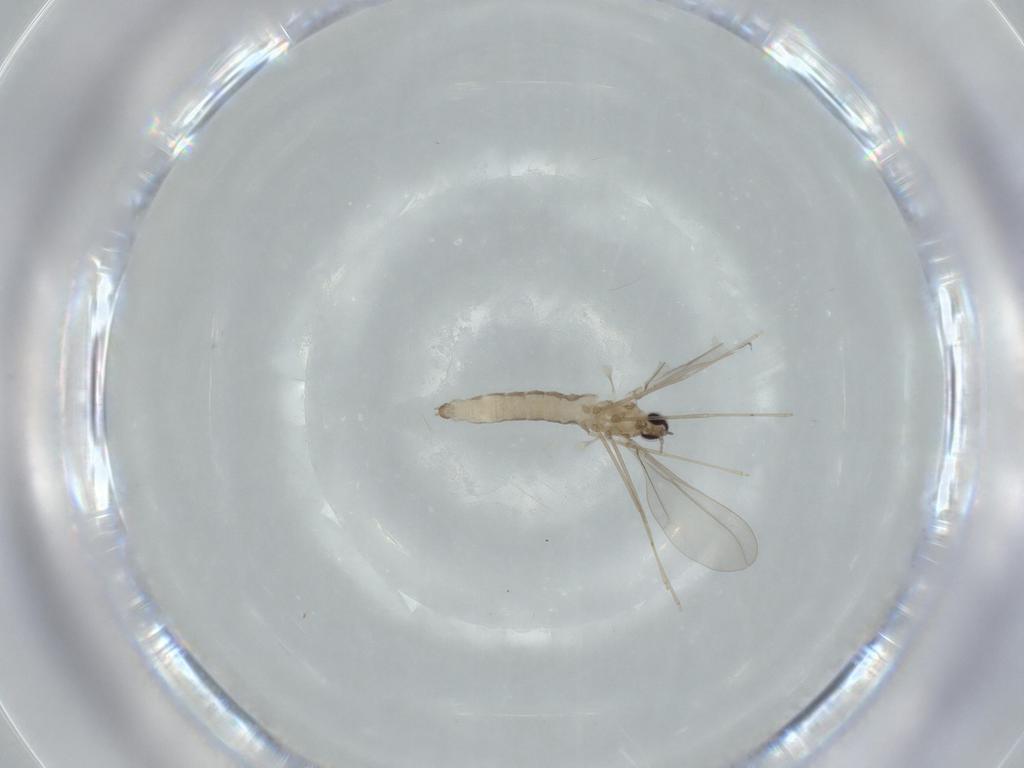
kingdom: Animalia
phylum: Arthropoda
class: Insecta
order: Diptera
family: Cecidomyiidae
